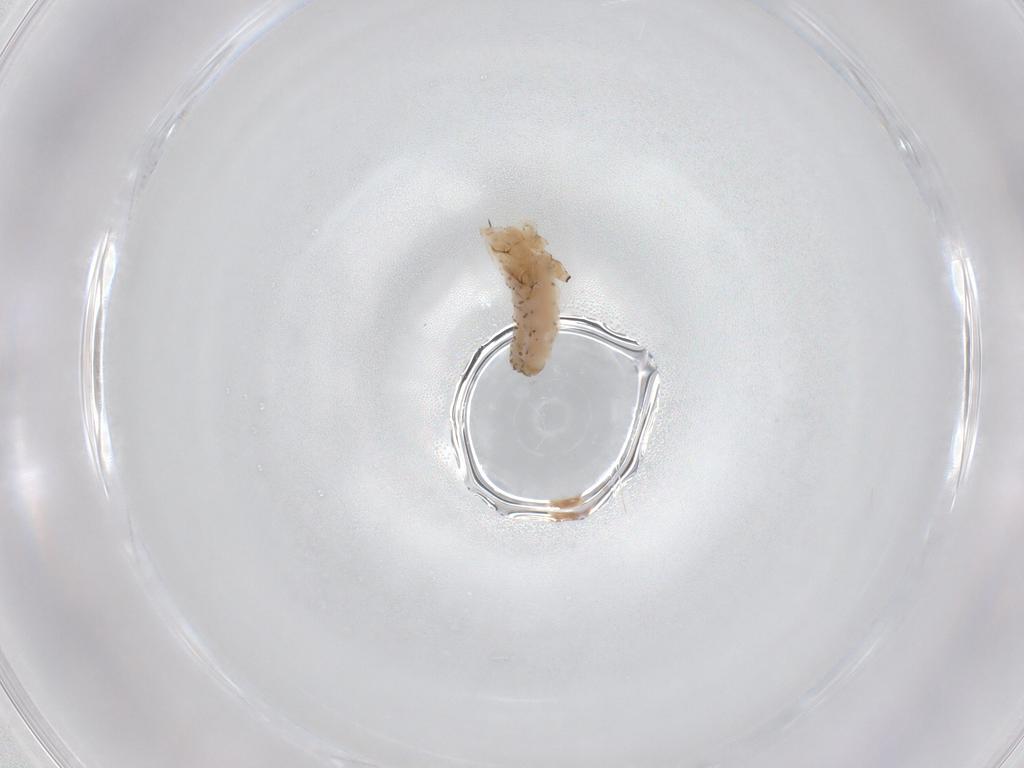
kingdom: Animalia
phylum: Arthropoda
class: Insecta
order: Hemiptera
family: Aphididae
